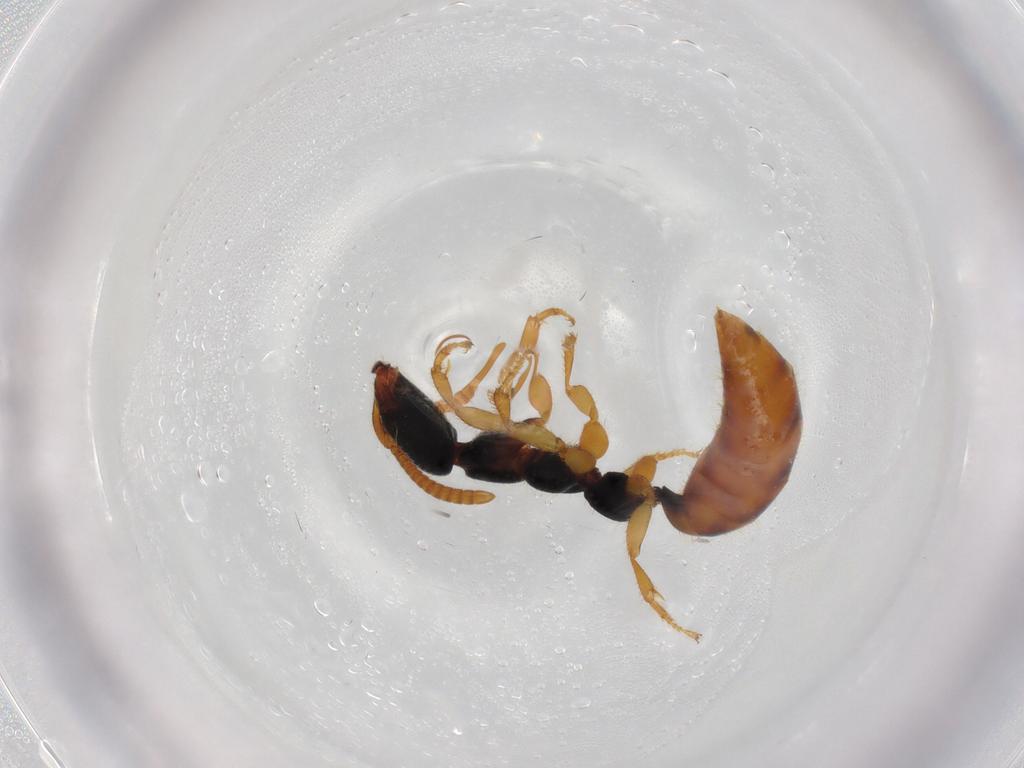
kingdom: Animalia
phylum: Arthropoda
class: Insecta
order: Hymenoptera
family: Bethylidae
